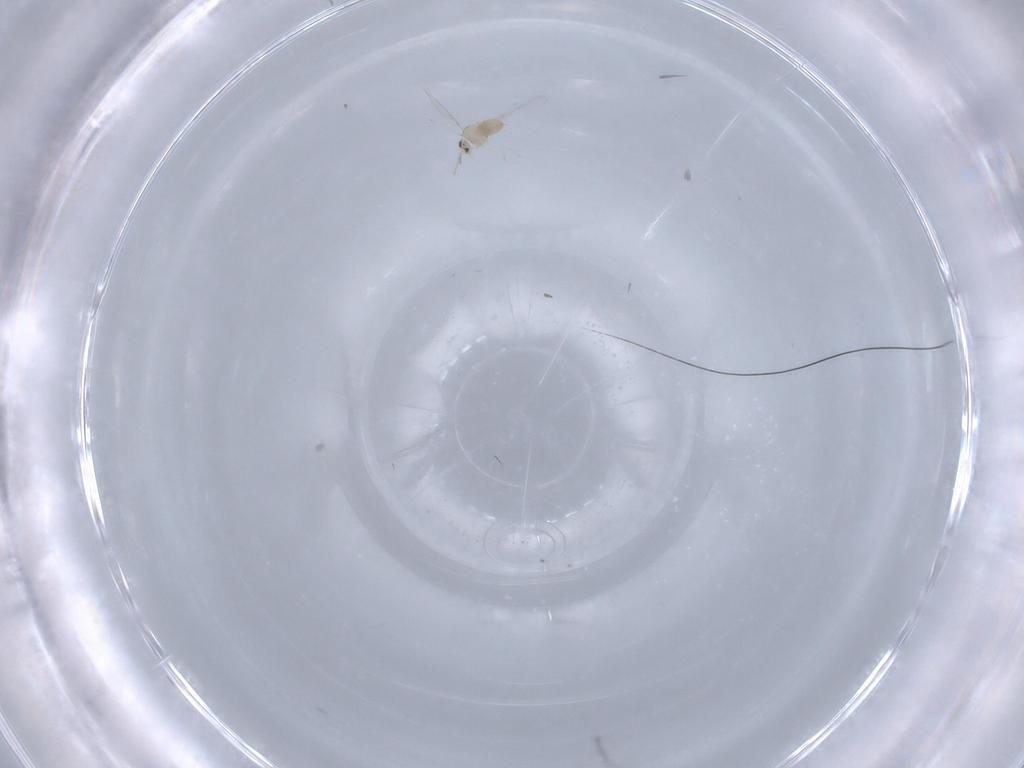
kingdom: Animalia
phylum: Arthropoda
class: Insecta
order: Diptera
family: Cecidomyiidae
